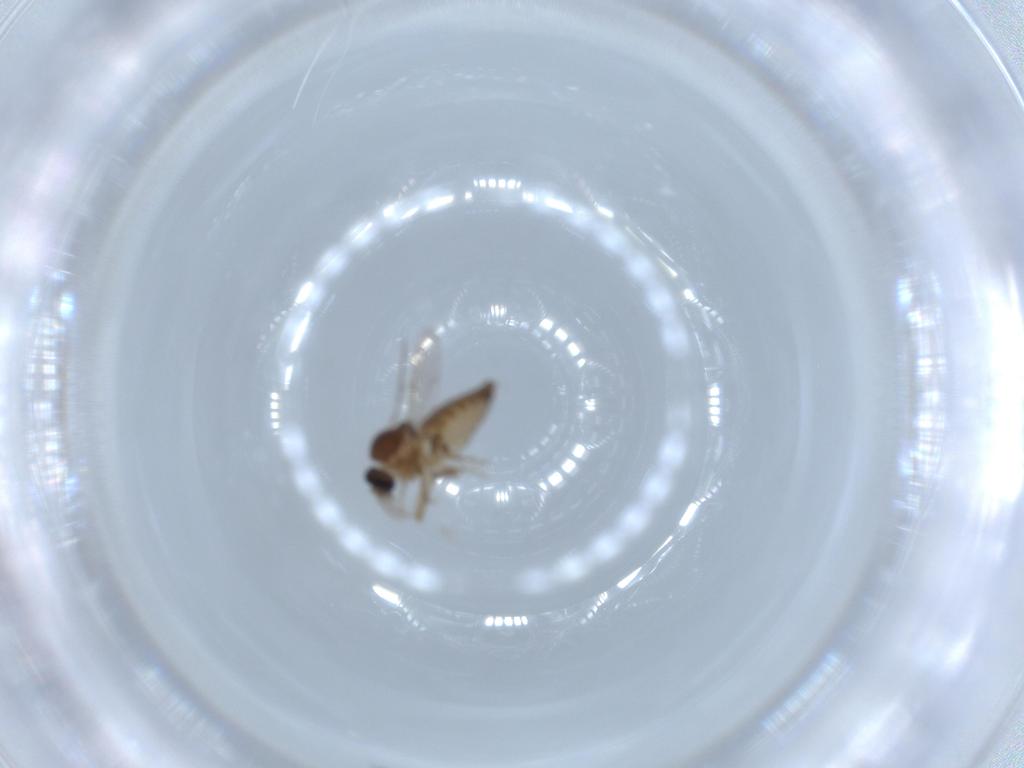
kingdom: Animalia
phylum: Arthropoda
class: Insecta
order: Diptera
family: Ceratopogonidae
